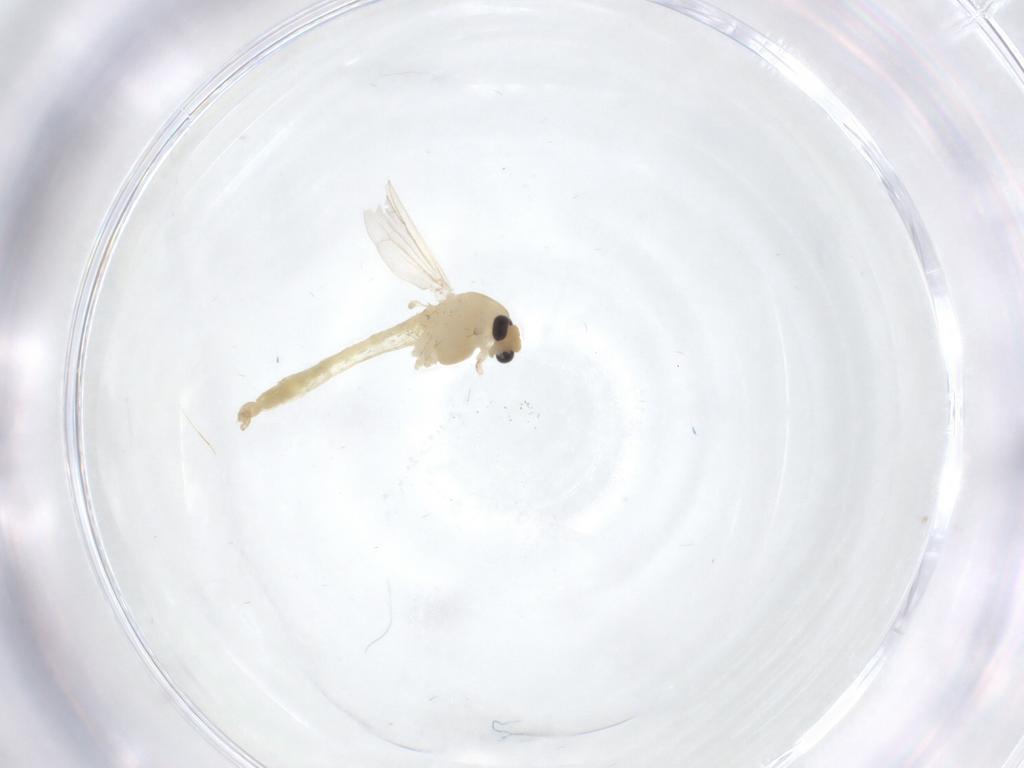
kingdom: Animalia
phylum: Arthropoda
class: Insecta
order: Diptera
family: Chironomidae
